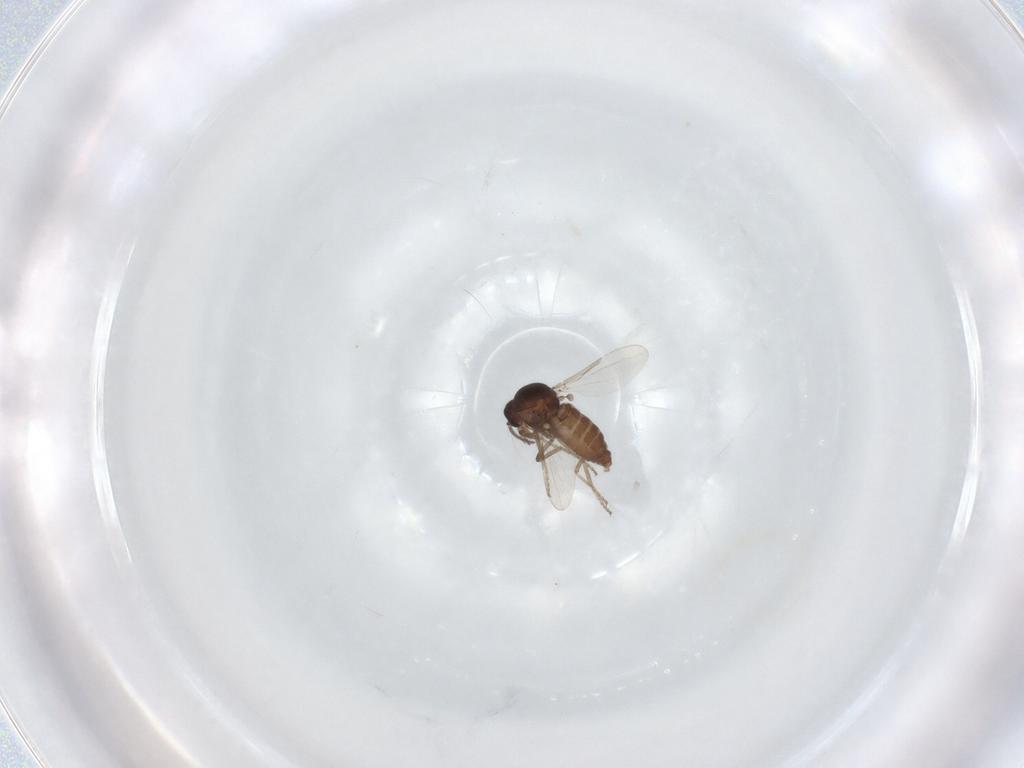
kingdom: Animalia
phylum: Arthropoda
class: Insecta
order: Diptera
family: Ceratopogonidae
